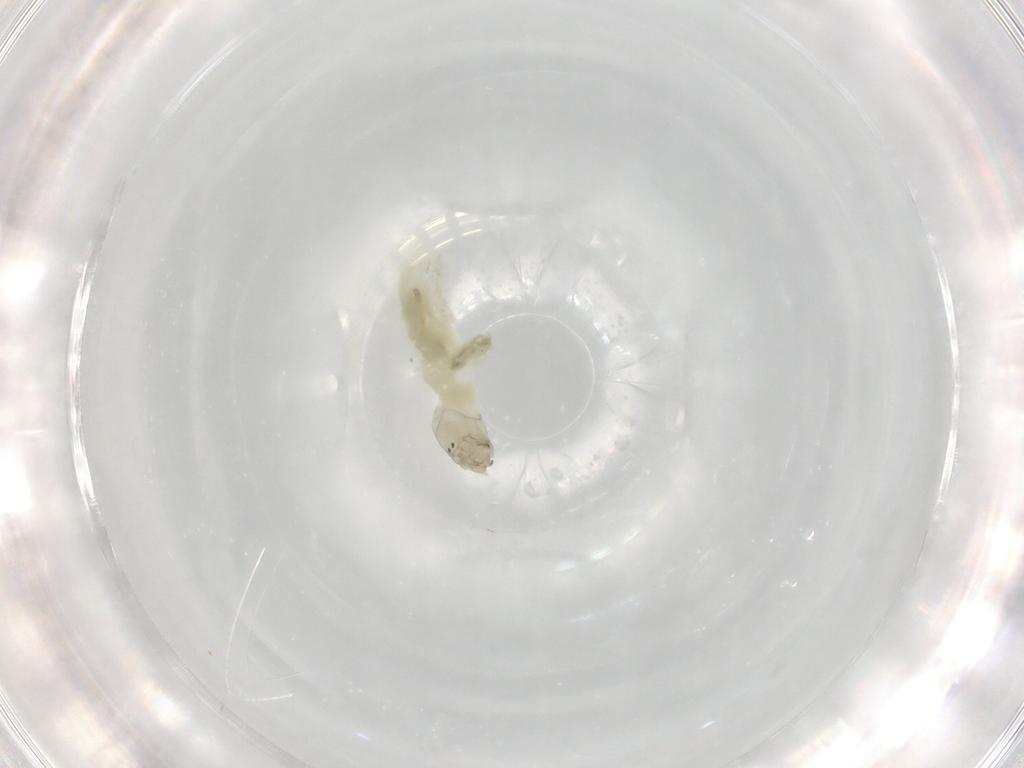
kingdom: Animalia
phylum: Arthropoda
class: Insecta
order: Diptera
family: Chironomidae
